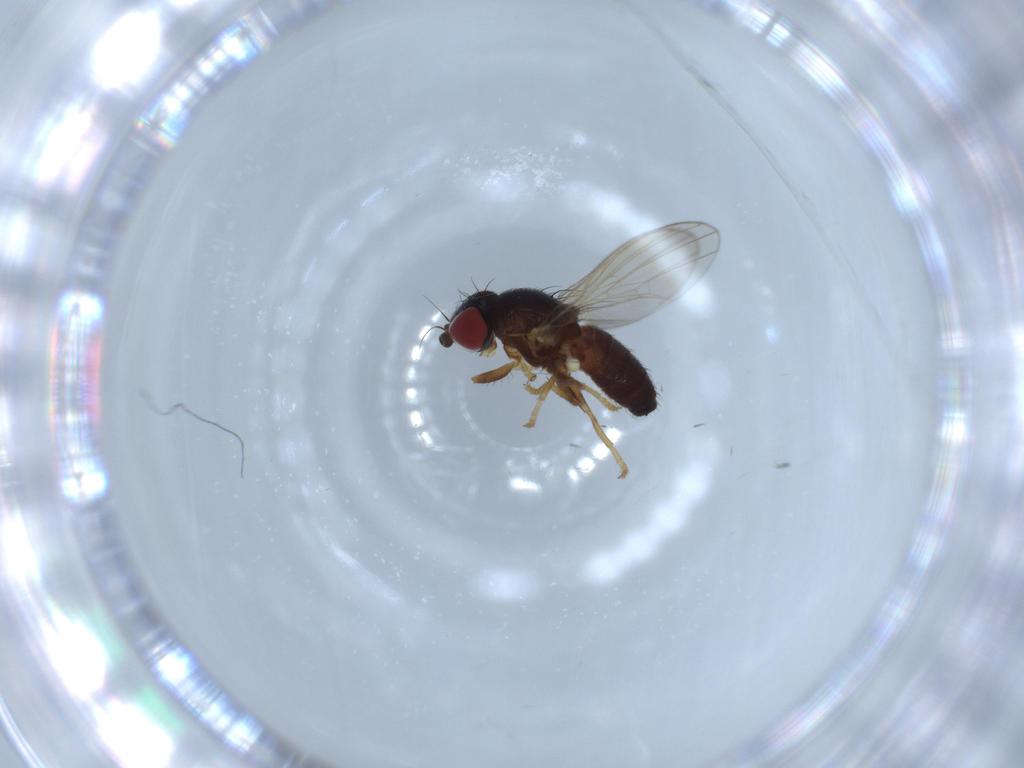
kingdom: Animalia
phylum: Arthropoda
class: Insecta
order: Diptera
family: Chamaemyiidae
